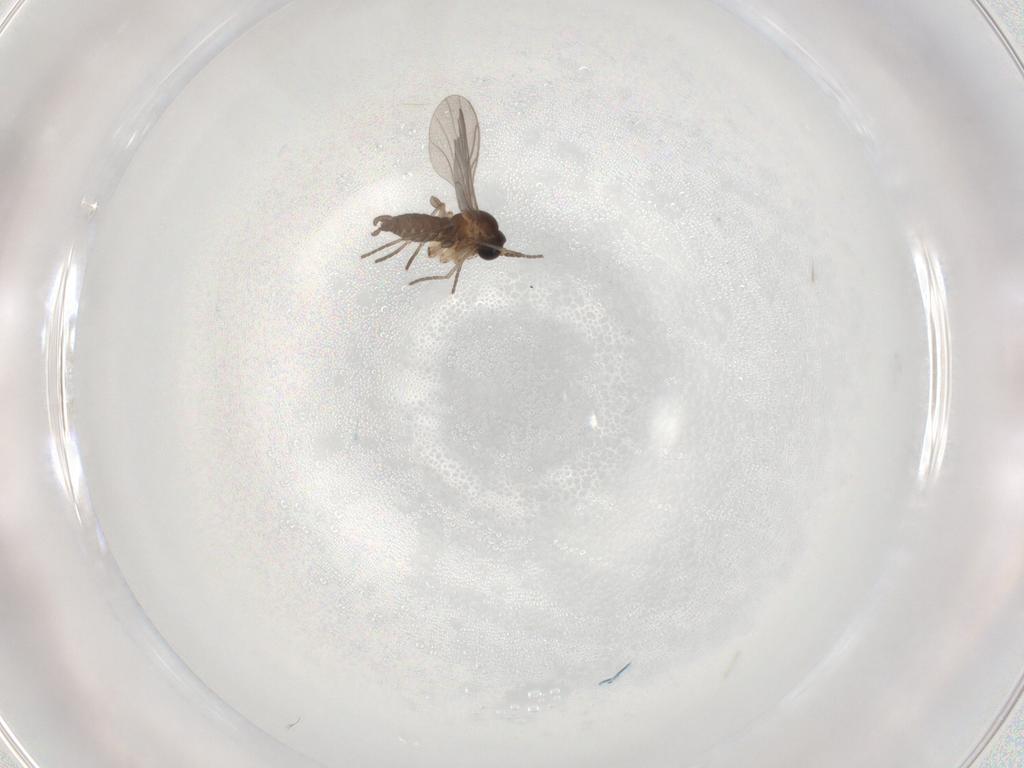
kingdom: Animalia
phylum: Arthropoda
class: Insecta
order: Diptera
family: Sciaridae
